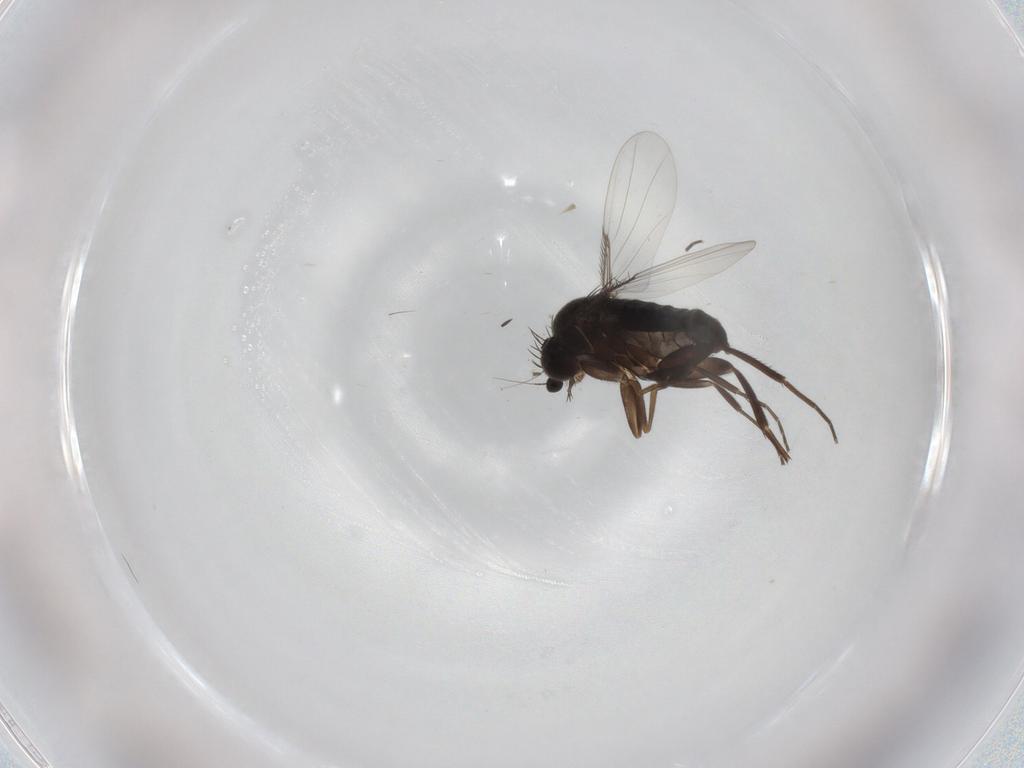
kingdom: Animalia
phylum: Arthropoda
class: Insecta
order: Diptera
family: Phoridae
